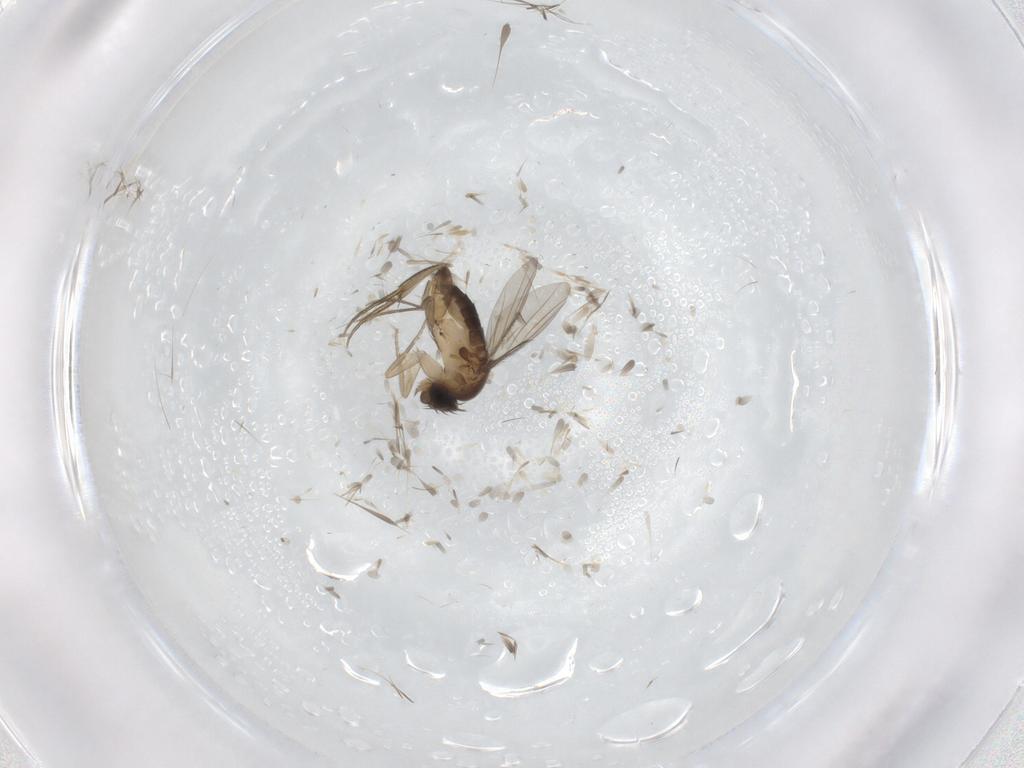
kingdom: Animalia
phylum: Arthropoda
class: Insecta
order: Diptera
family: Phoridae
